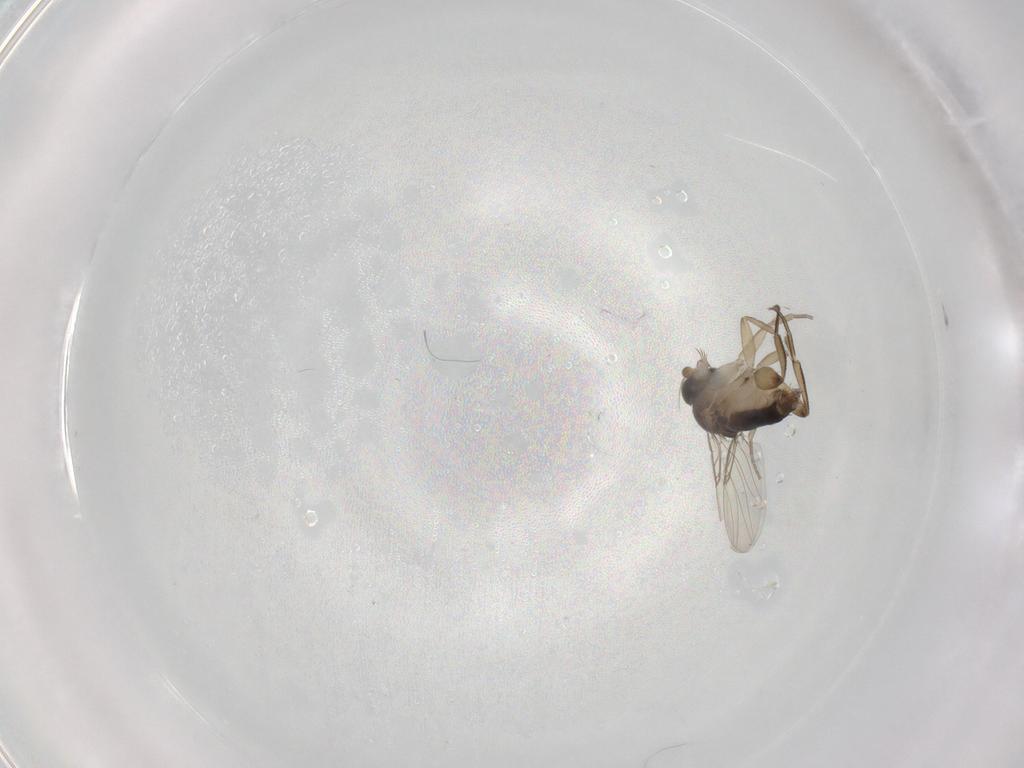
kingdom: Animalia
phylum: Arthropoda
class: Insecta
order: Diptera
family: Phoridae
